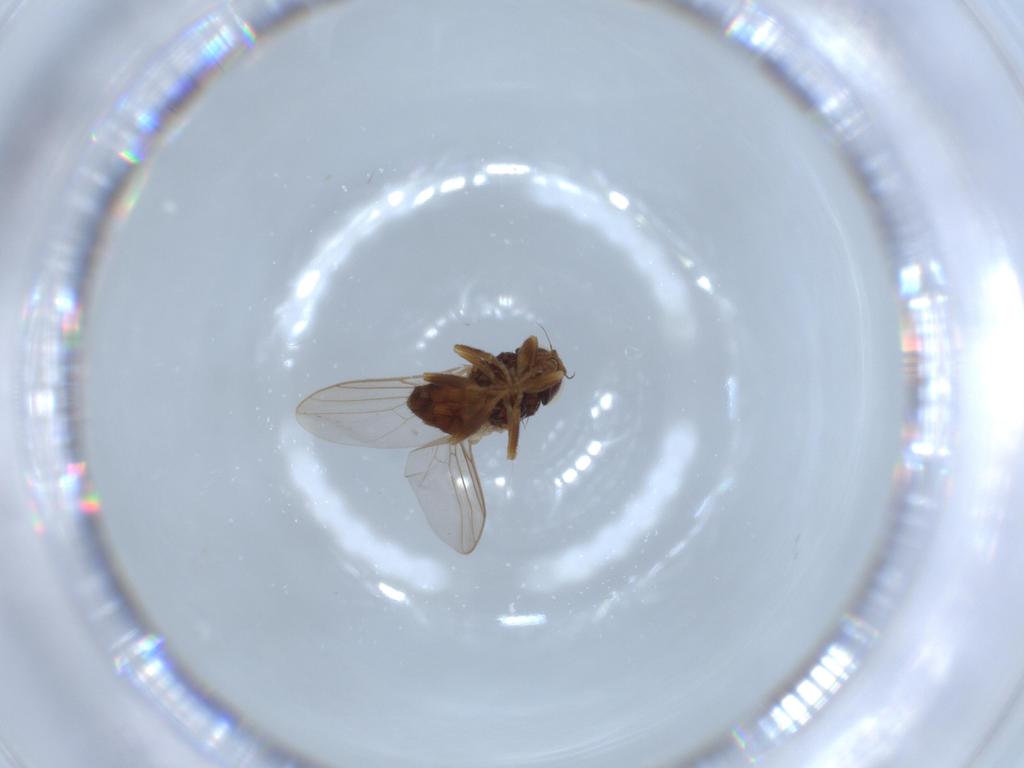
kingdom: Animalia
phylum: Arthropoda
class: Insecta
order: Diptera
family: Chloropidae
